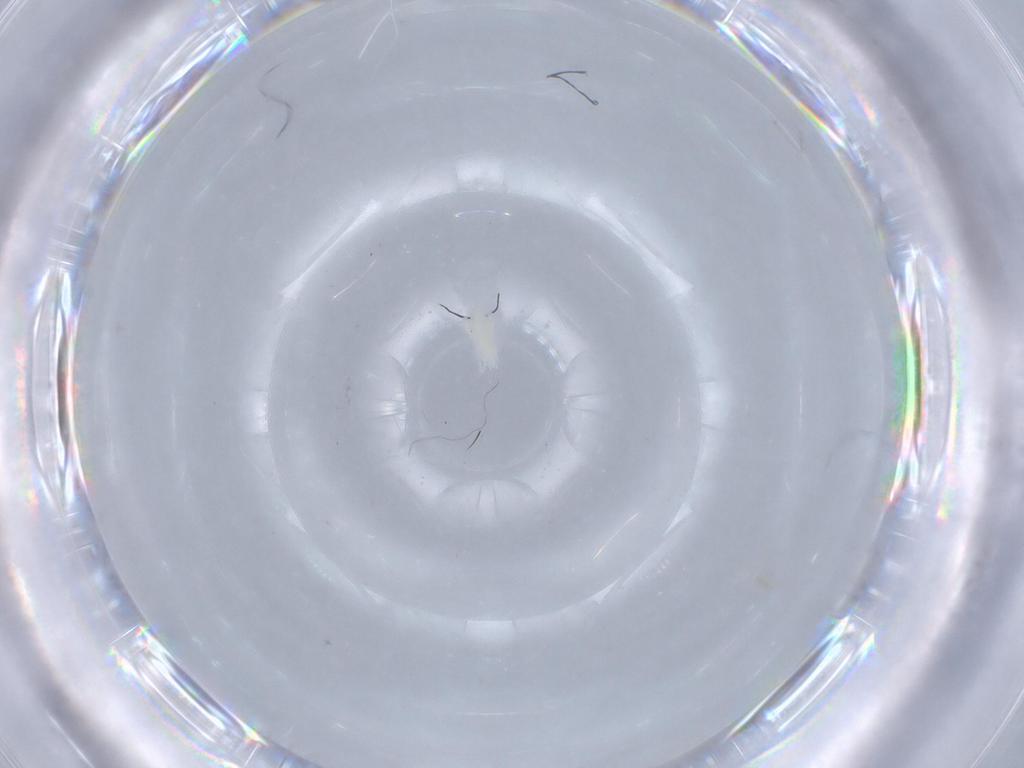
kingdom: Animalia
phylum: Arthropoda
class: Arachnida
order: Trombidiformes
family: Eupodidae
